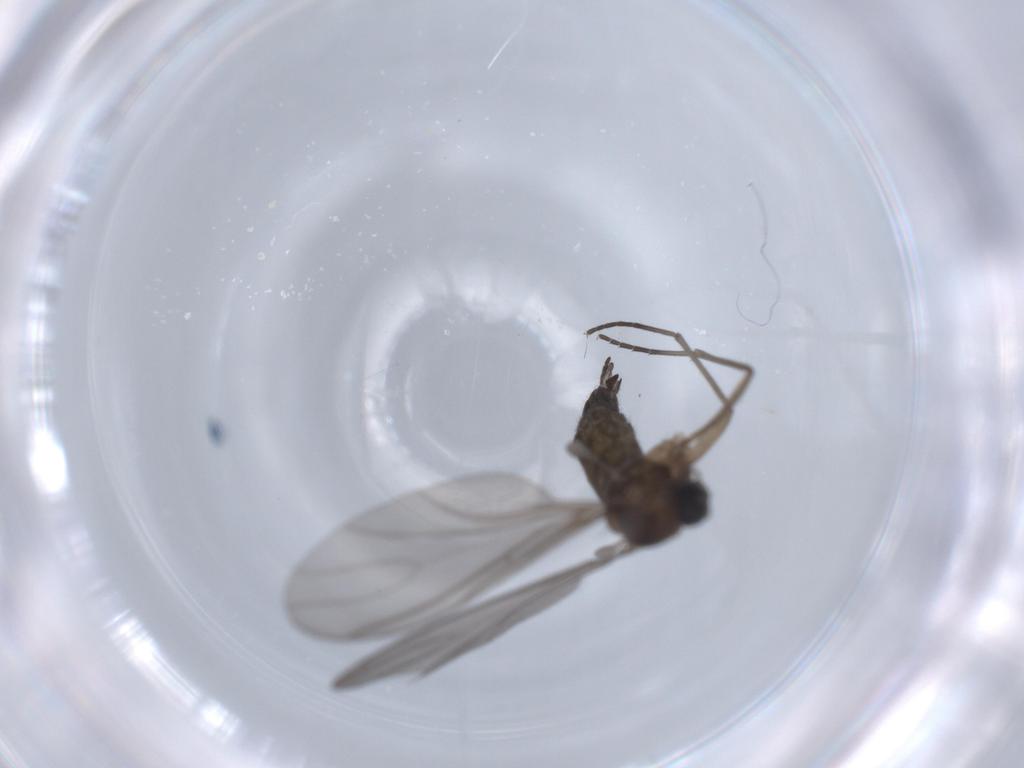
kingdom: Animalia
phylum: Arthropoda
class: Insecta
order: Diptera
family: Sciaridae
